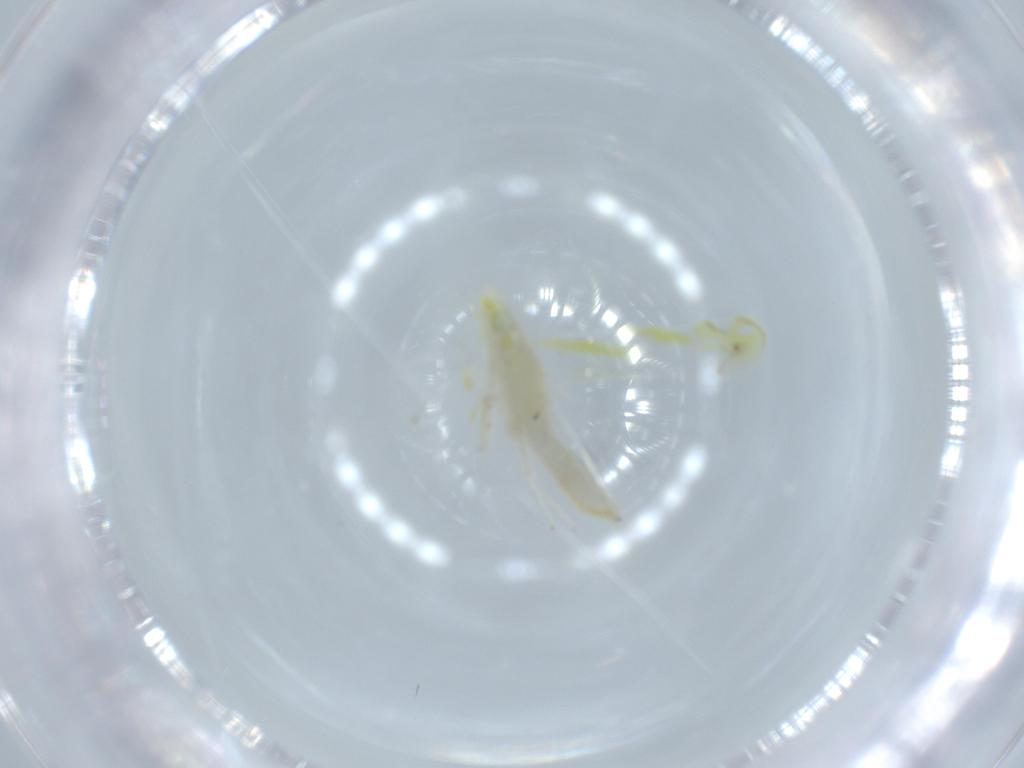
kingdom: Animalia
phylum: Arthropoda
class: Insecta
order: Hemiptera
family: Cicadellidae
